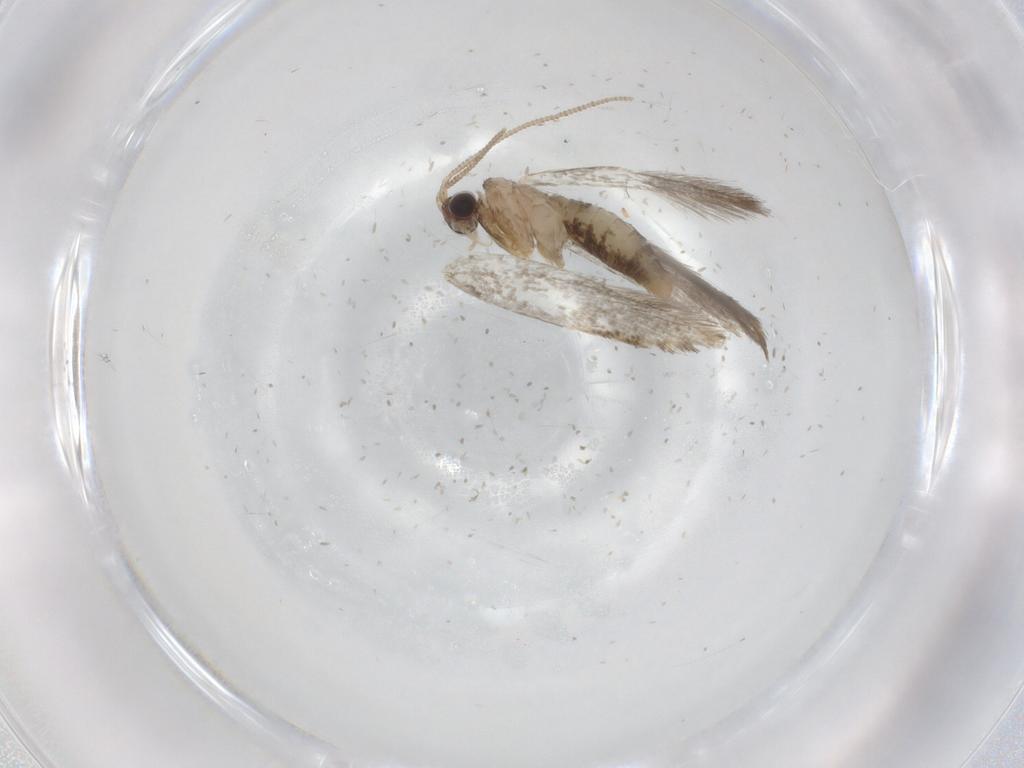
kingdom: Animalia
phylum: Arthropoda
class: Insecta
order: Lepidoptera
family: Tineidae
